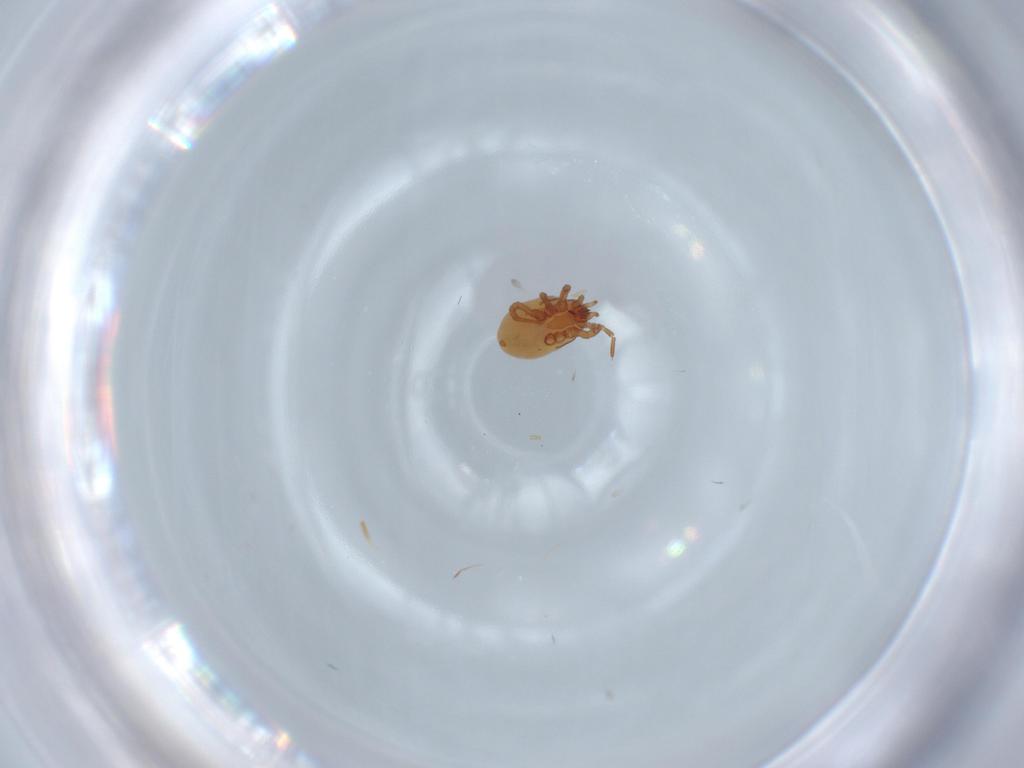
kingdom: Animalia
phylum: Arthropoda
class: Arachnida
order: Mesostigmata
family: Parasitidae
